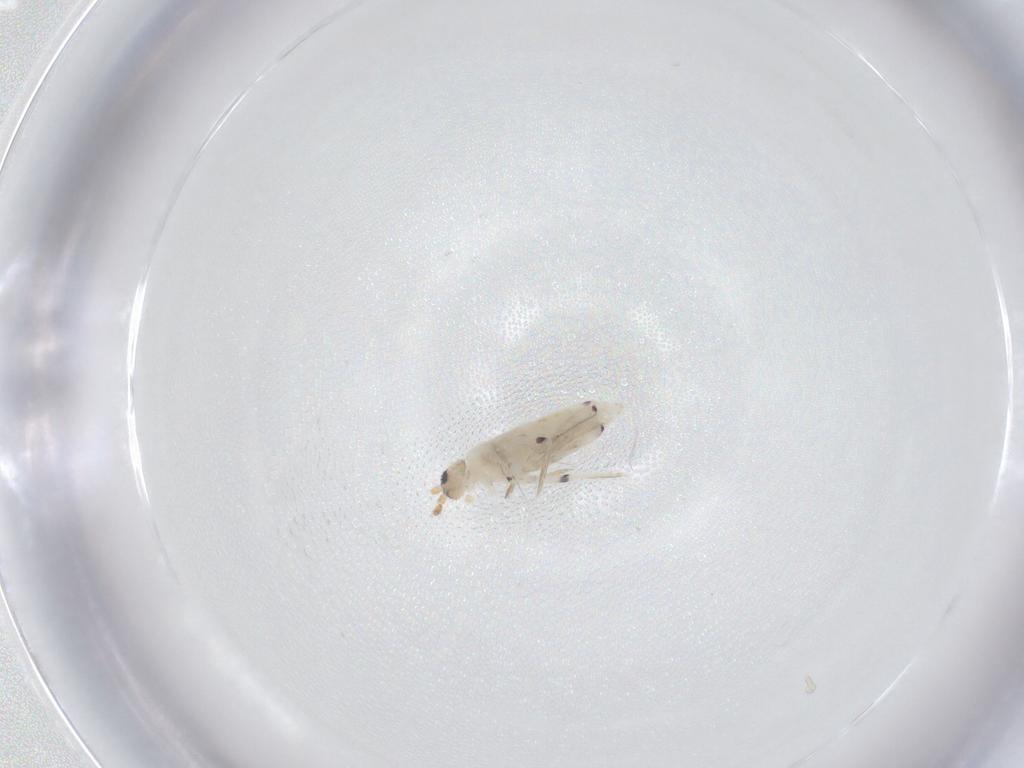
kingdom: Animalia
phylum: Arthropoda
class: Collembola
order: Entomobryomorpha
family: Entomobryidae
